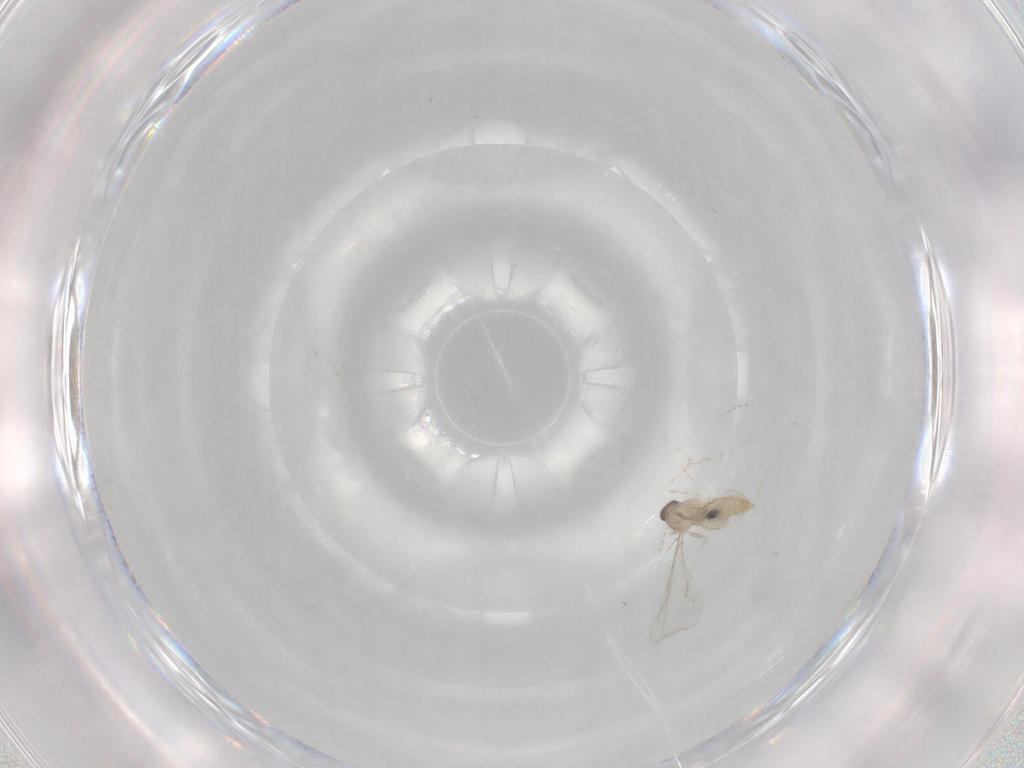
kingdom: Animalia
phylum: Arthropoda
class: Insecta
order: Diptera
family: Cecidomyiidae
